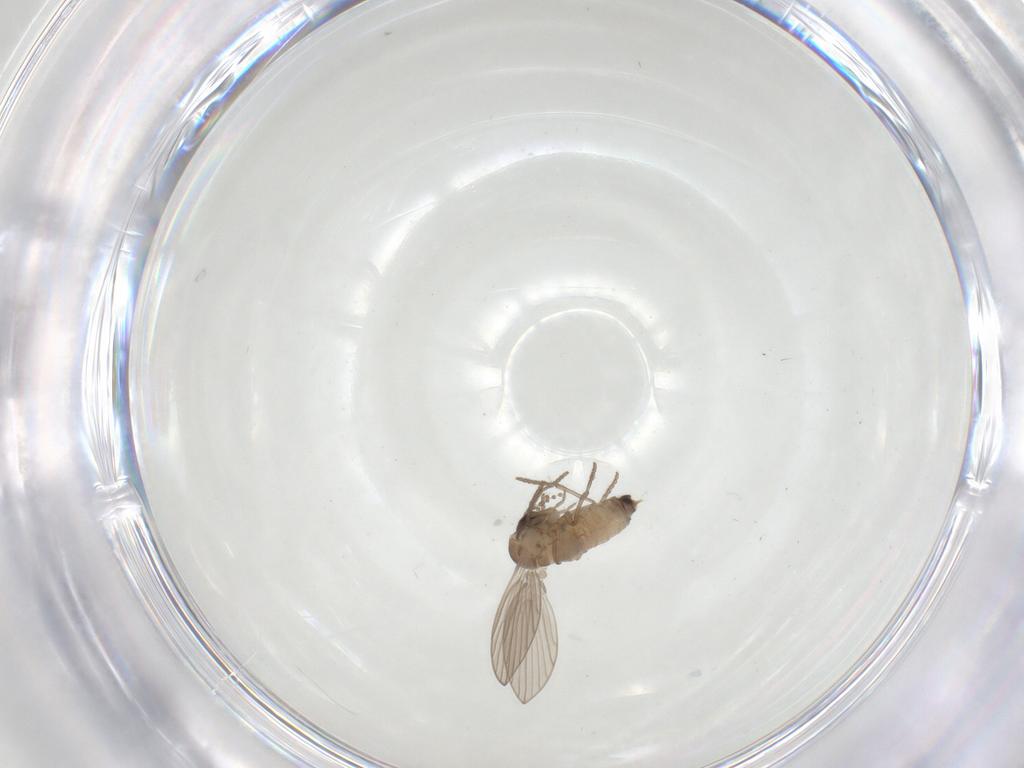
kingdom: Animalia
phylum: Arthropoda
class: Insecta
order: Diptera
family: Psychodidae
